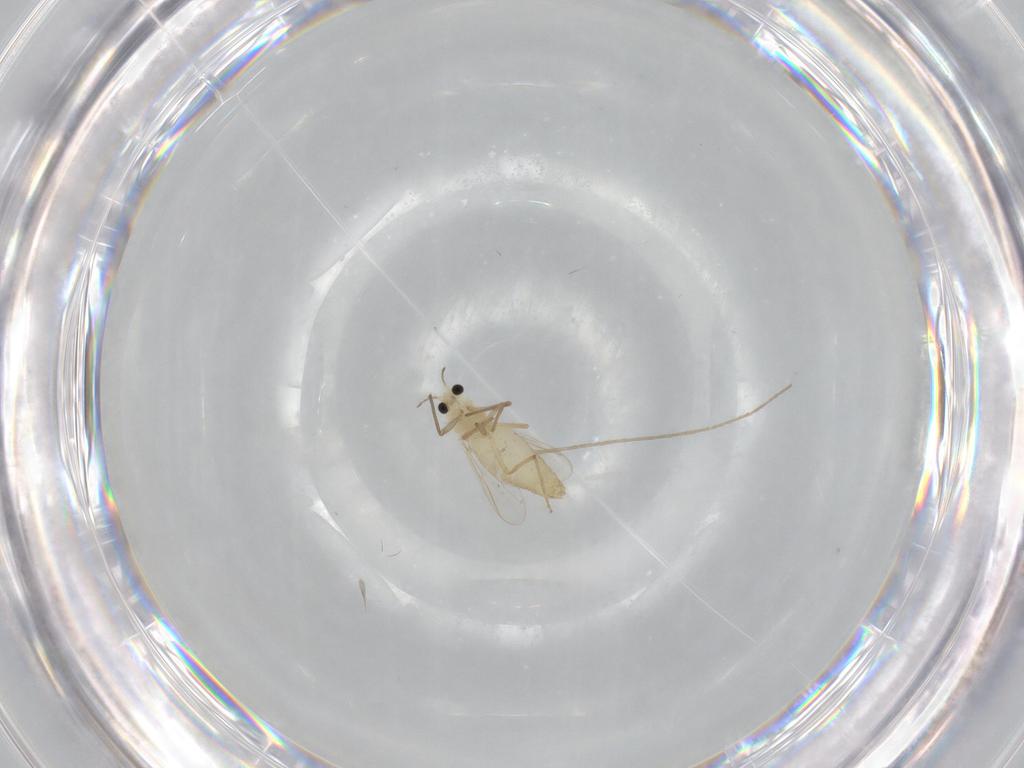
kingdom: Animalia
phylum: Arthropoda
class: Insecta
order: Diptera
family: Chironomidae
